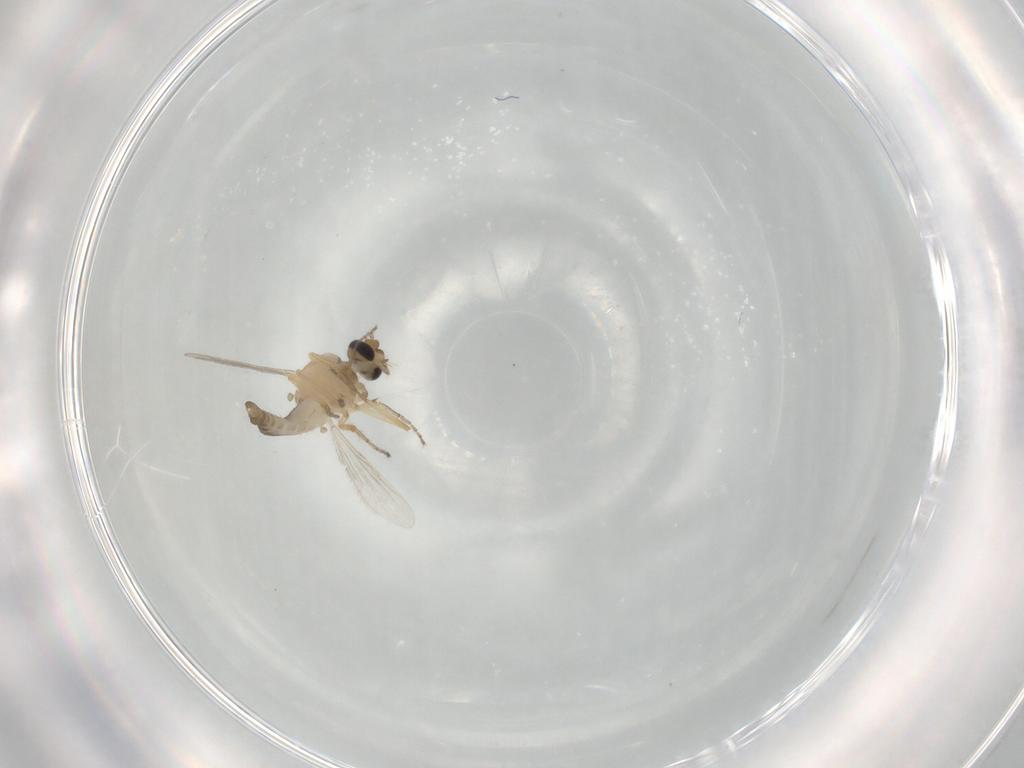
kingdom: Animalia
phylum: Arthropoda
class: Insecta
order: Diptera
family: Ceratopogonidae
